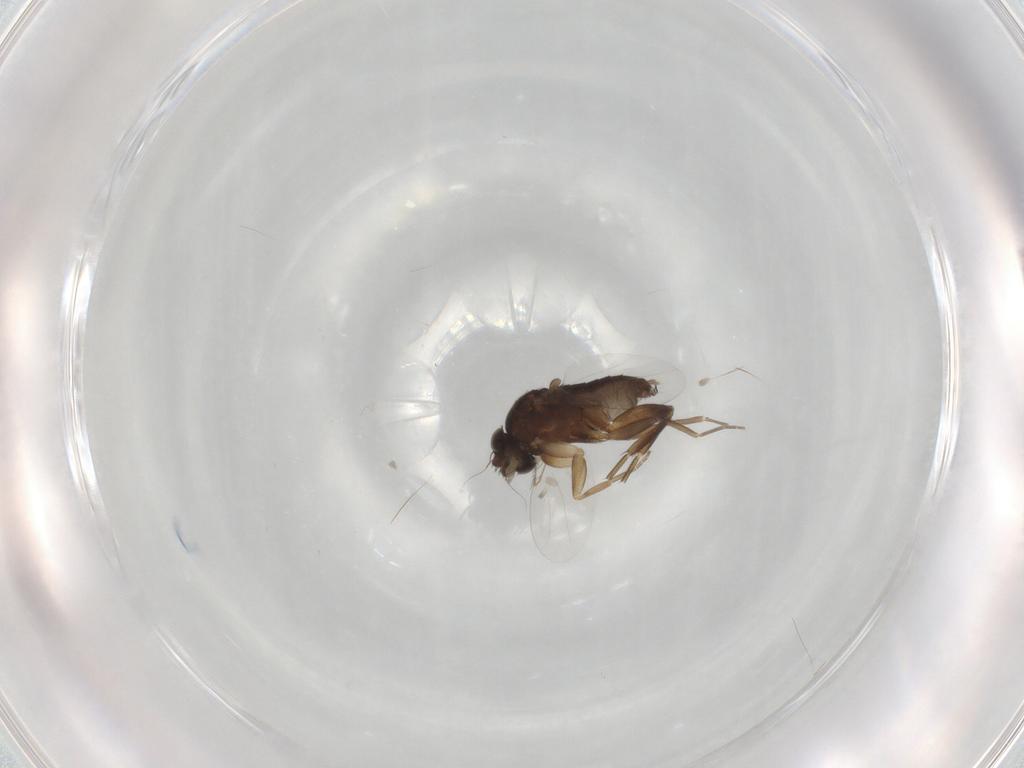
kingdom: Animalia
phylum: Arthropoda
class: Insecta
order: Diptera
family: Phoridae
